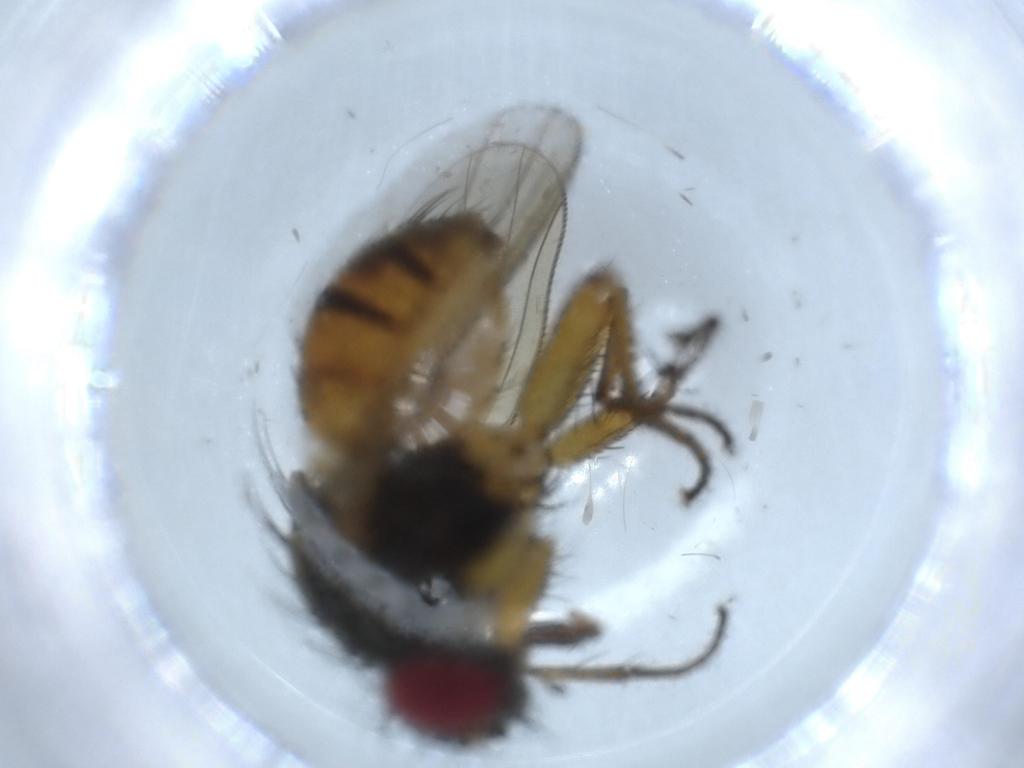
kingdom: Animalia
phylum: Arthropoda
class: Insecta
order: Diptera
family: Muscidae
